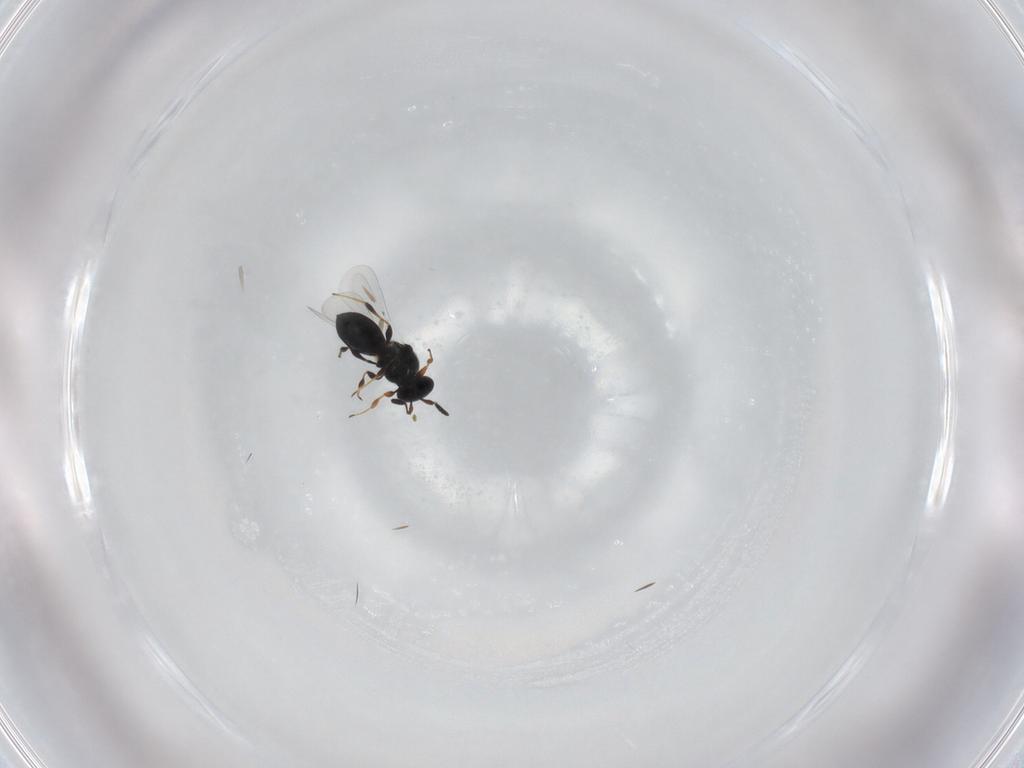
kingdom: Animalia
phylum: Arthropoda
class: Insecta
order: Hymenoptera
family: Platygastridae
